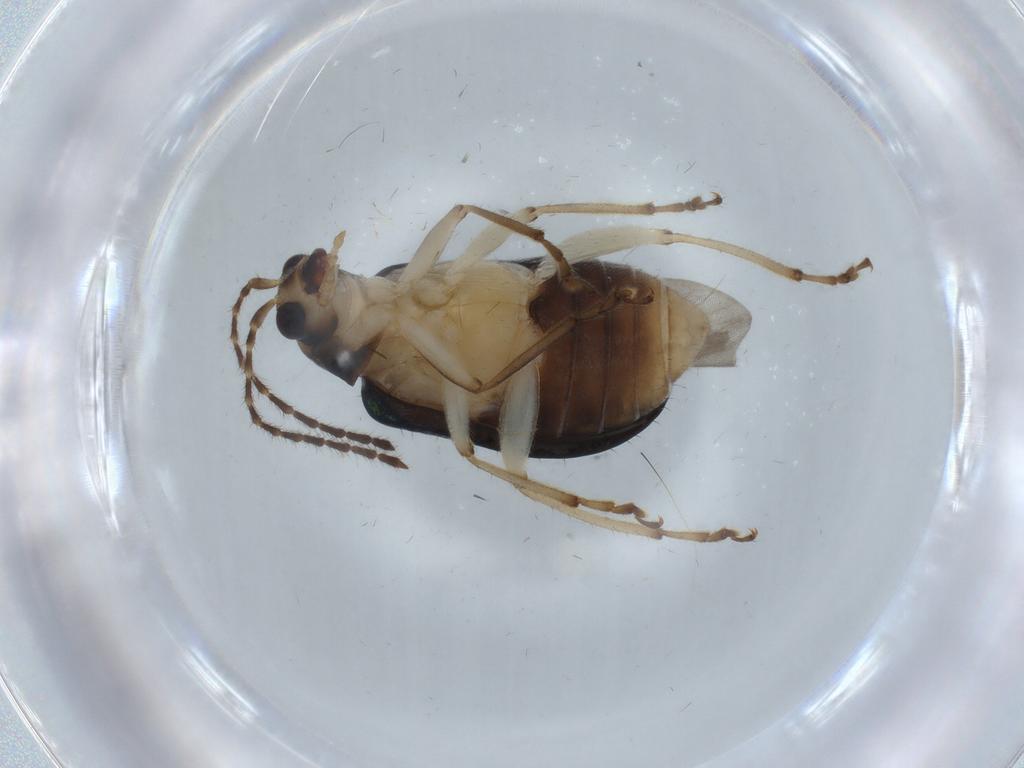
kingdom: Animalia
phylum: Arthropoda
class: Insecta
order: Coleoptera
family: Chrysomelidae
